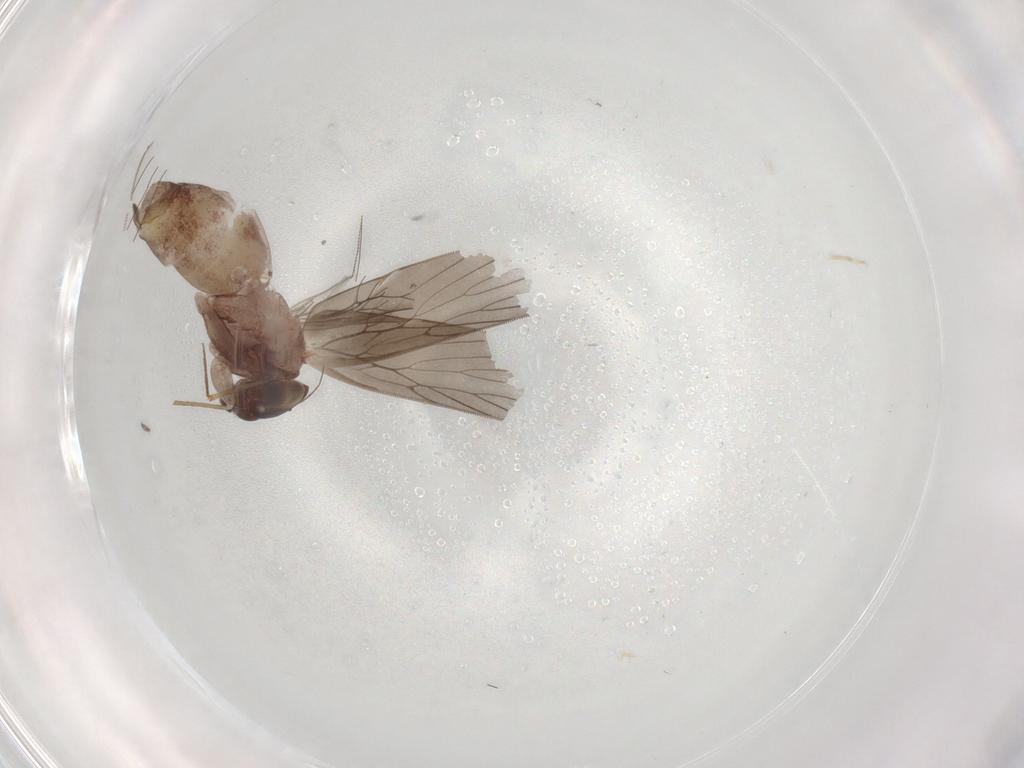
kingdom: Animalia
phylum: Arthropoda
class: Insecta
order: Psocodea
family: Lepidopsocidae
